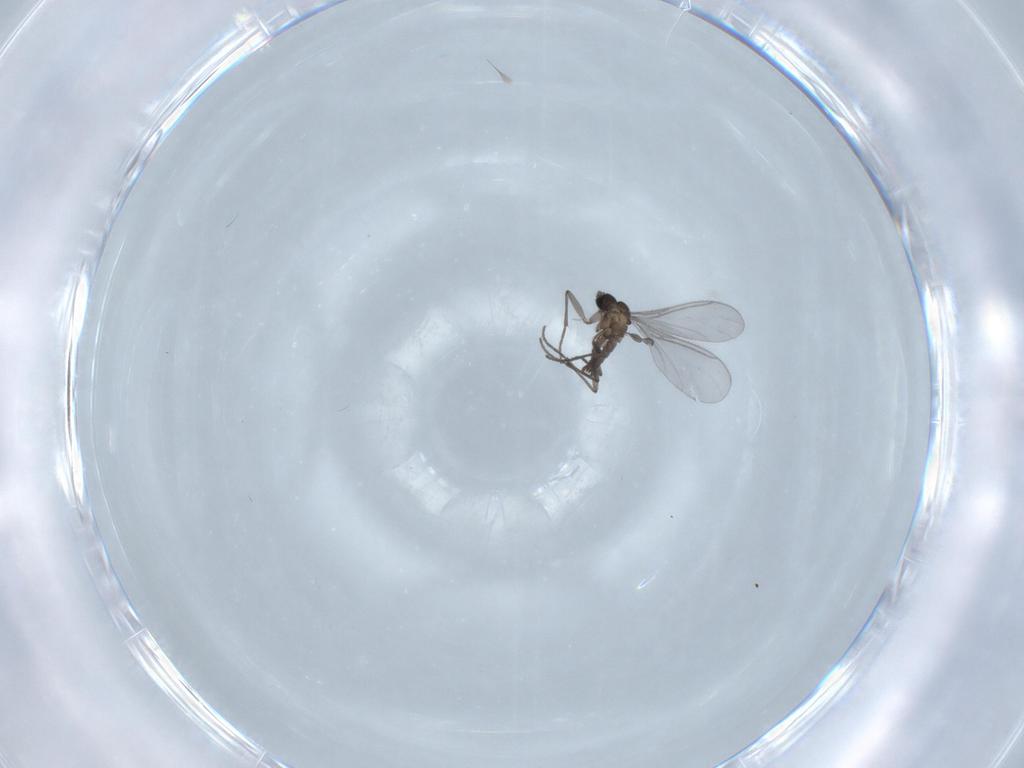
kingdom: Animalia
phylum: Arthropoda
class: Insecta
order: Diptera
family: Sciaridae
